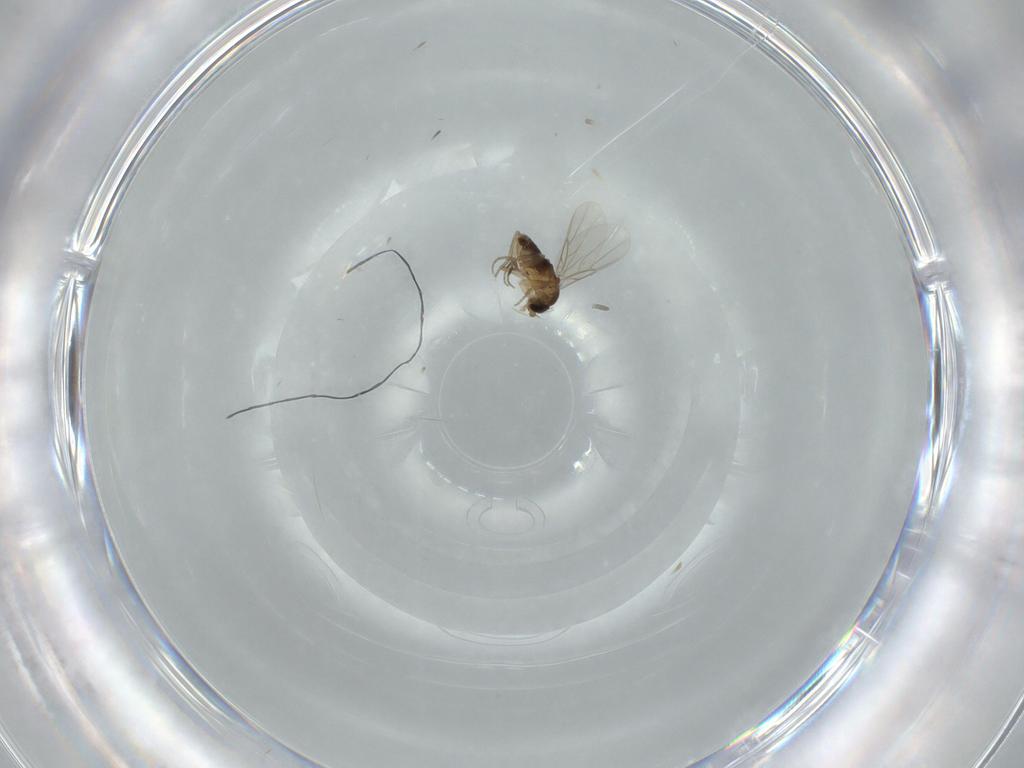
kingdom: Animalia
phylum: Arthropoda
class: Insecta
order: Diptera
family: Phoridae
